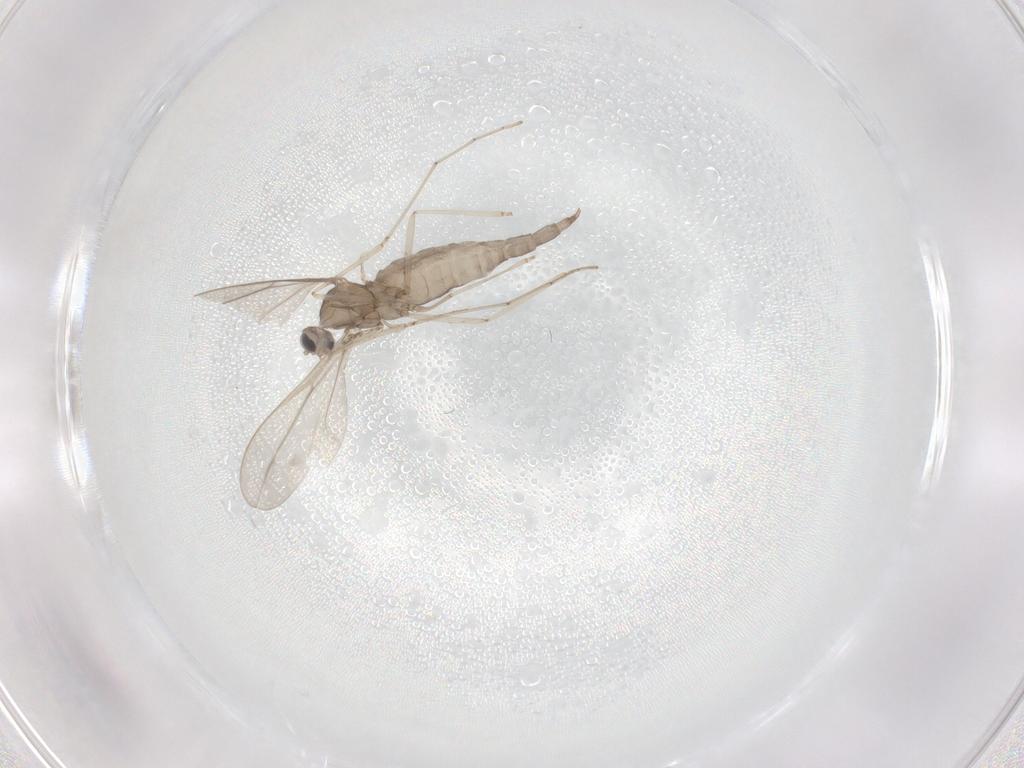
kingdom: Animalia
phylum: Arthropoda
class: Insecta
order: Diptera
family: Cecidomyiidae
